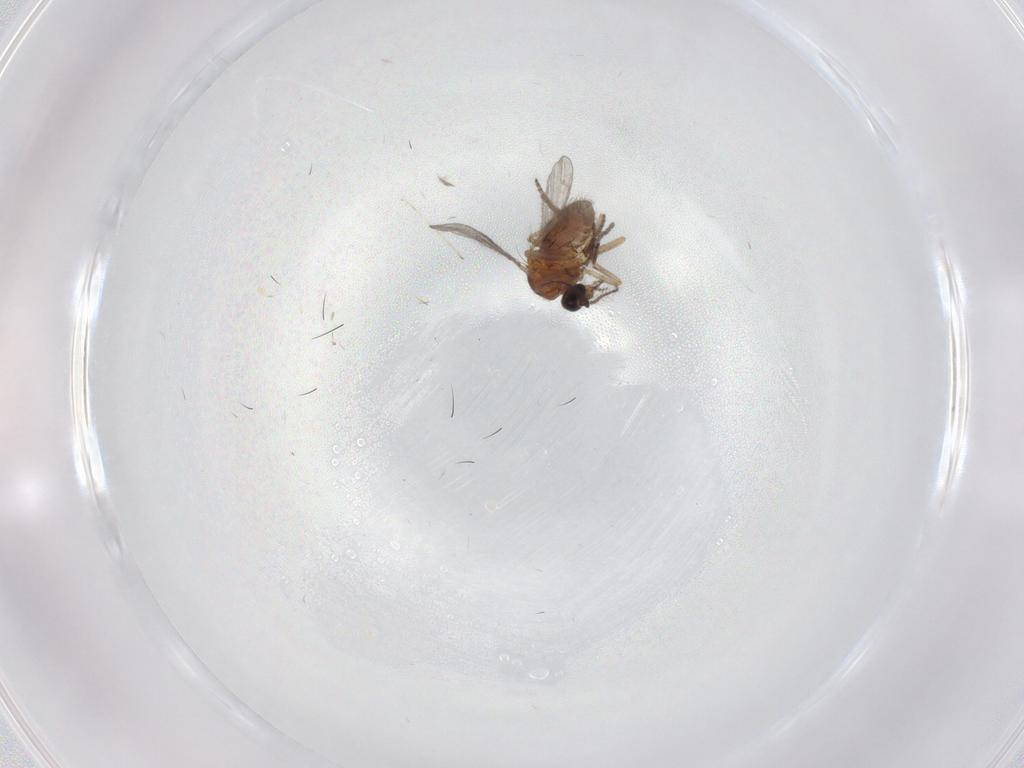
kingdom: Animalia
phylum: Arthropoda
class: Insecta
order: Diptera
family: Ceratopogonidae
